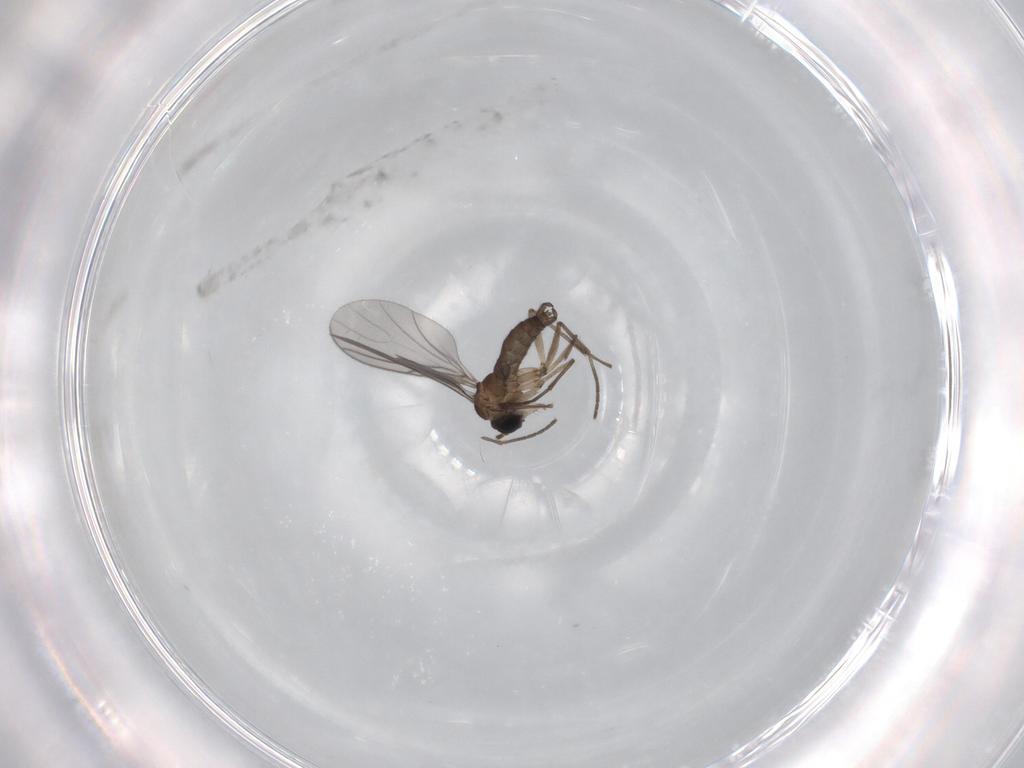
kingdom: Animalia
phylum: Arthropoda
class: Insecta
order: Diptera
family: Sciaridae
